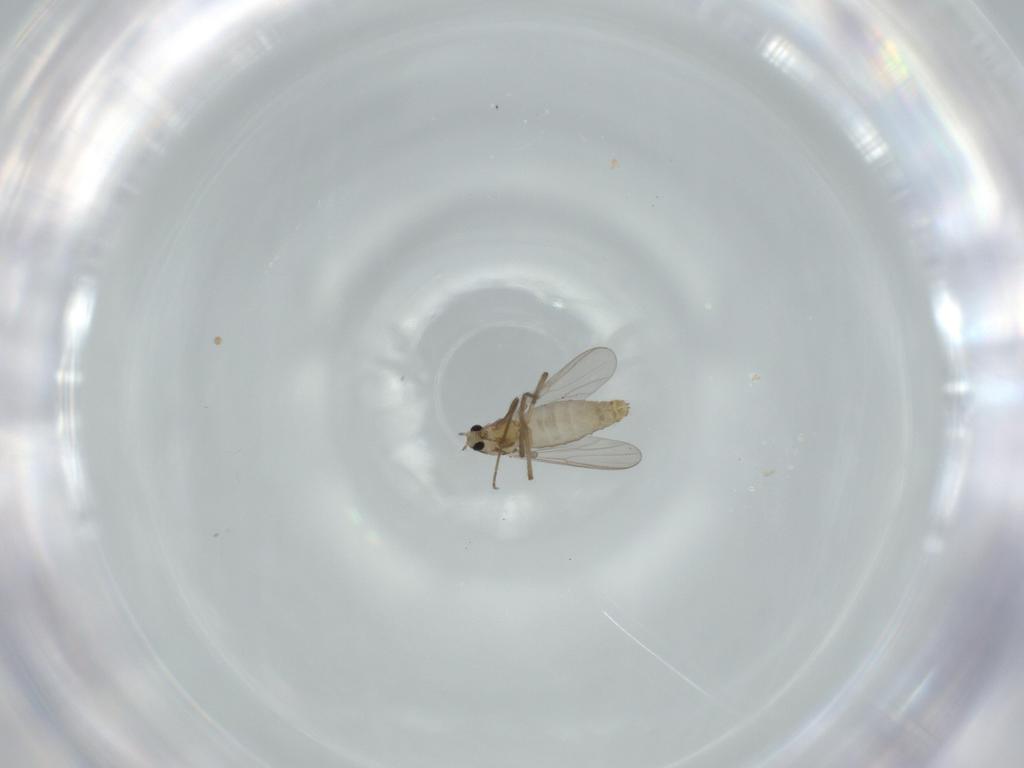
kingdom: Animalia
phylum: Arthropoda
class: Insecta
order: Diptera
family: Chironomidae
